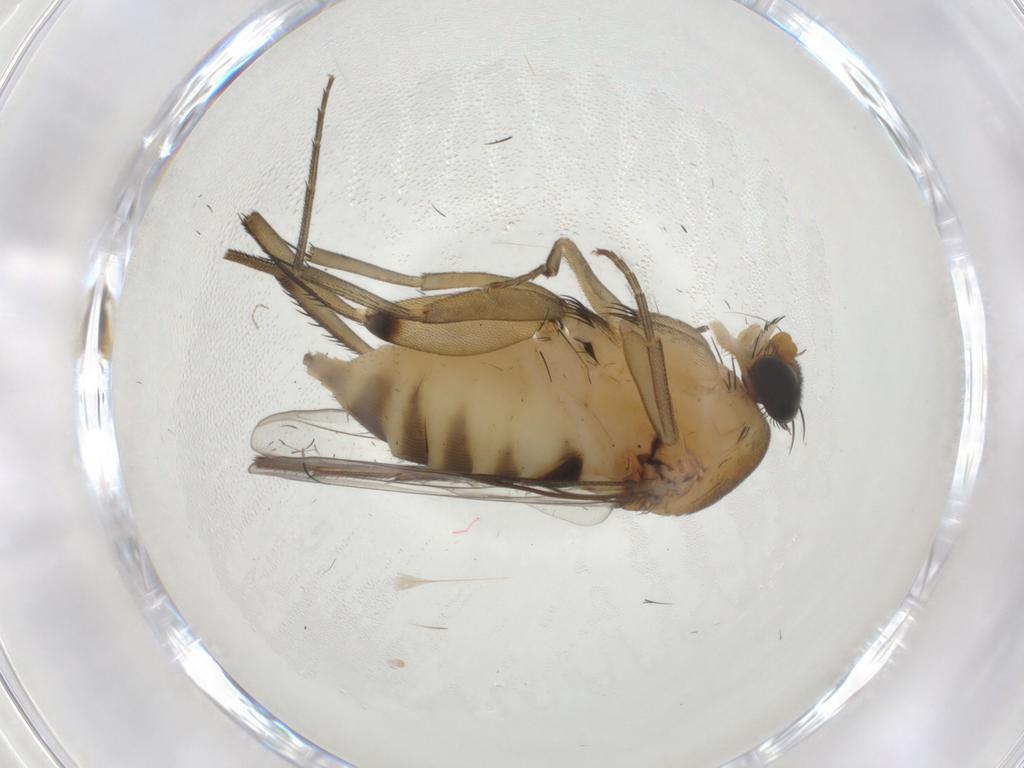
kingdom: Animalia
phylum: Arthropoda
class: Insecta
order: Diptera
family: Phoridae
